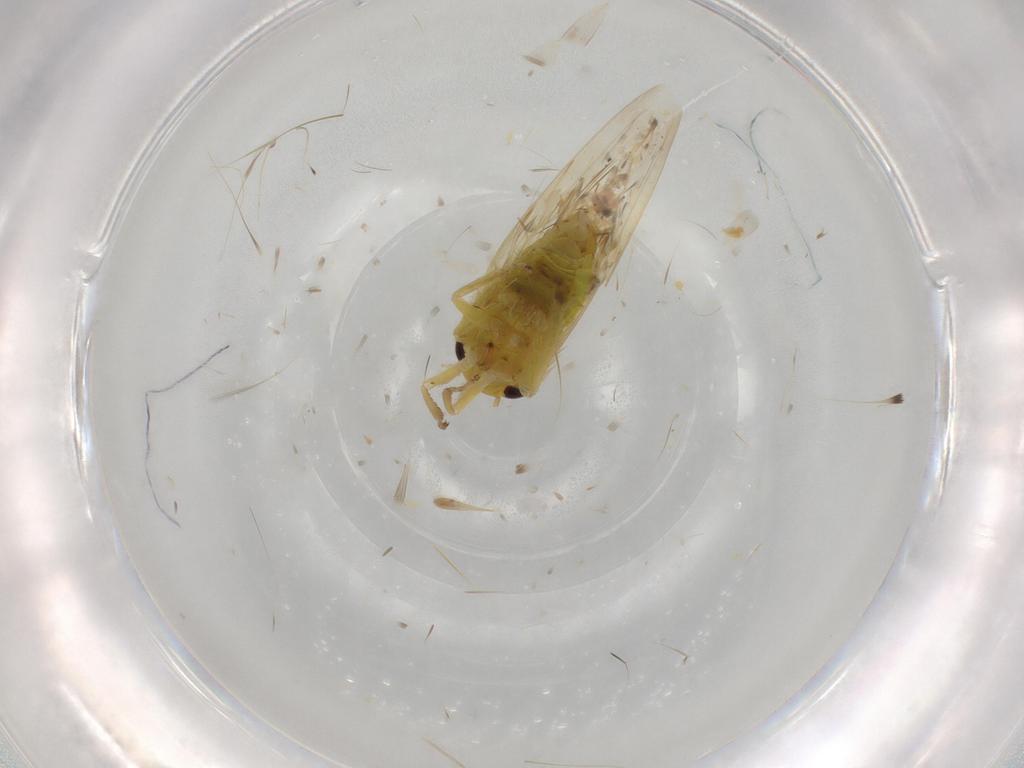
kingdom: Animalia
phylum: Arthropoda
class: Insecta
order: Hemiptera
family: Cicadellidae
